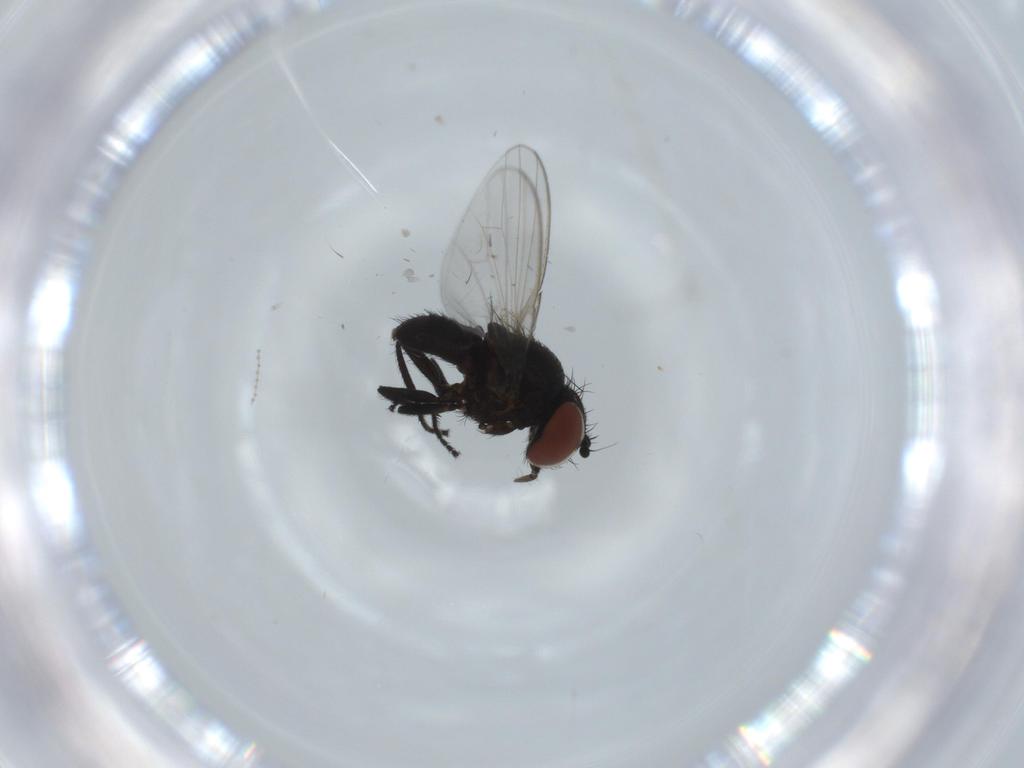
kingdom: Animalia
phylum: Arthropoda
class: Insecta
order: Diptera
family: Milichiidae
